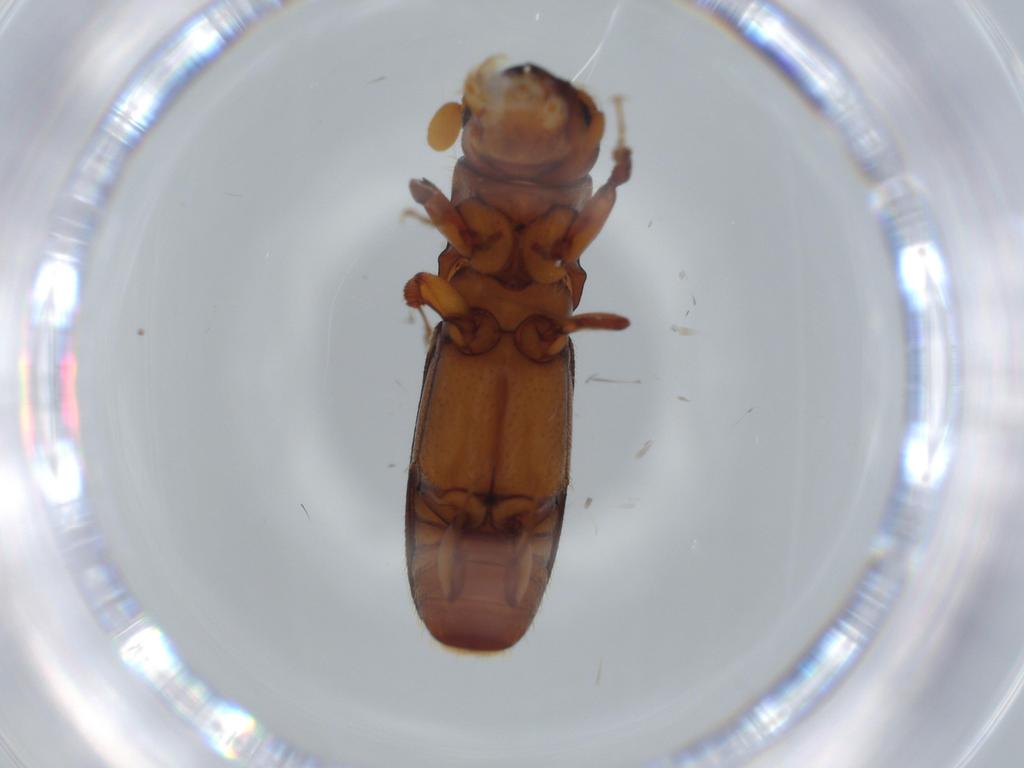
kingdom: Animalia
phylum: Arthropoda
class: Insecta
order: Coleoptera
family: Curculionidae
